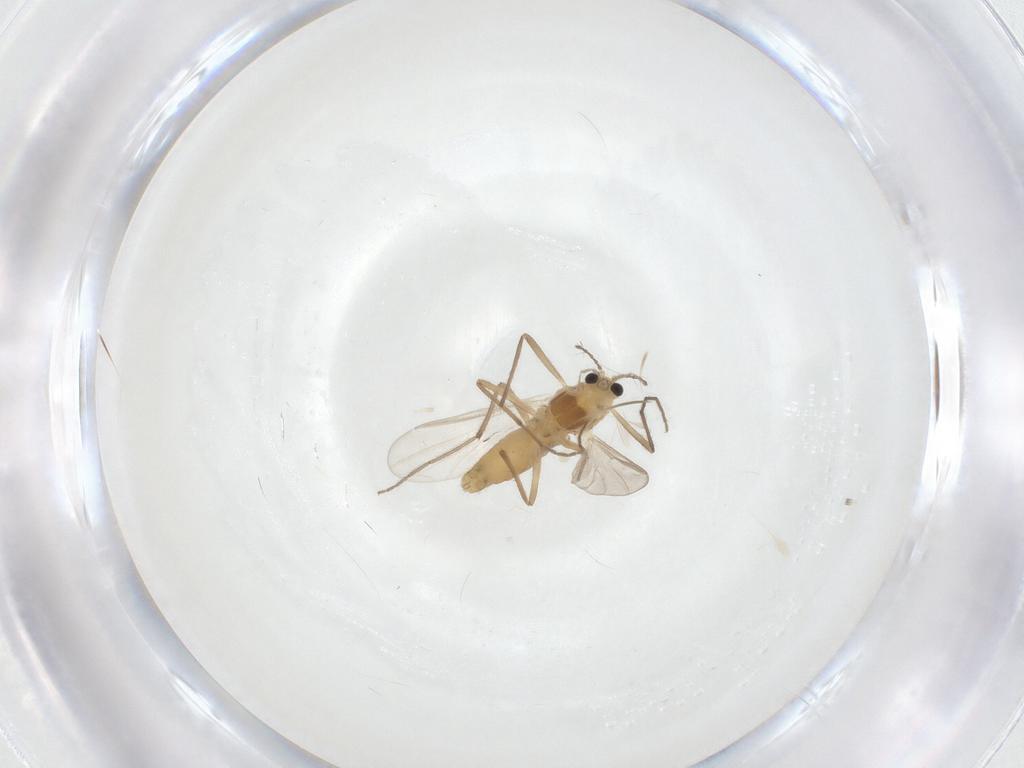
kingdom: Animalia
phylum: Arthropoda
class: Insecta
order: Diptera
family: Chironomidae
